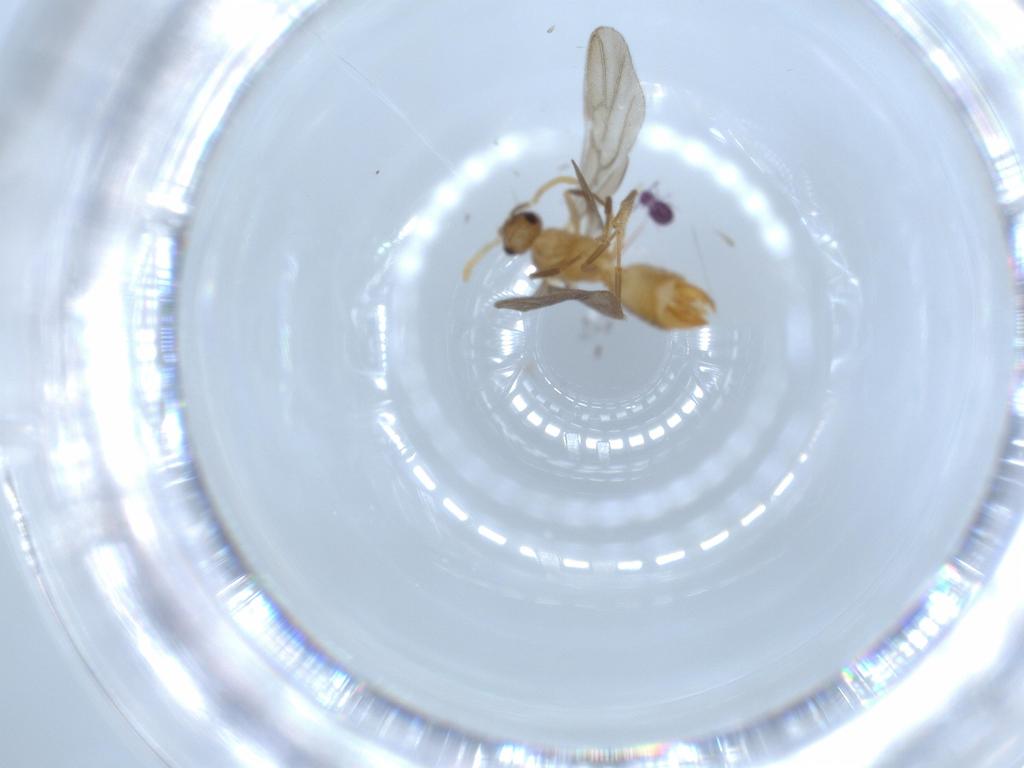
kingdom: Animalia
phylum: Arthropoda
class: Insecta
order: Hymenoptera
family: Formicidae
